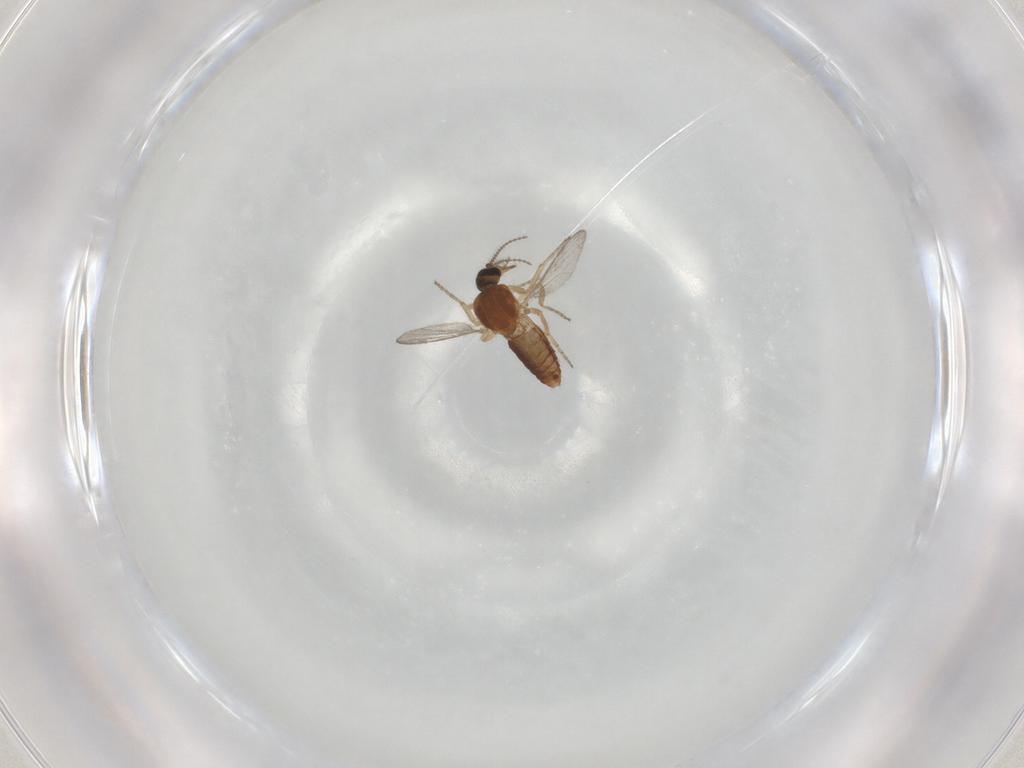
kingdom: Animalia
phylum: Arthropoda
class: Insecta
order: Diptera
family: Ceratopogonidae
